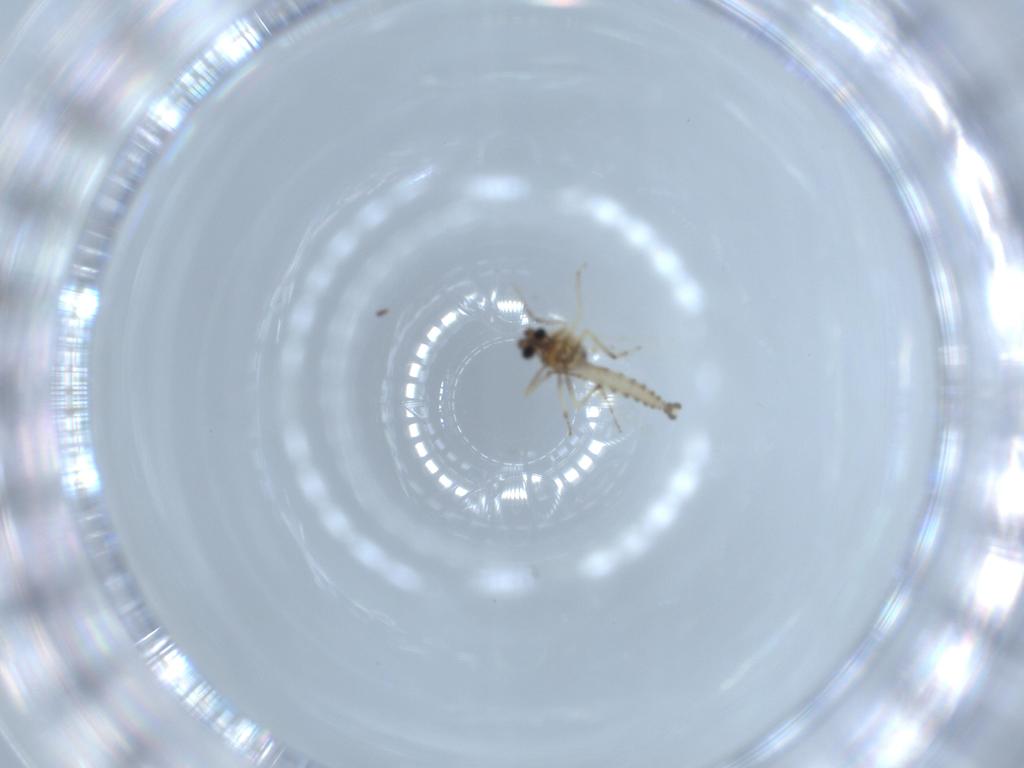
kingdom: Animalia
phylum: Arthropoda
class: Insecta
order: Diptera
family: Ceratopogonidae
